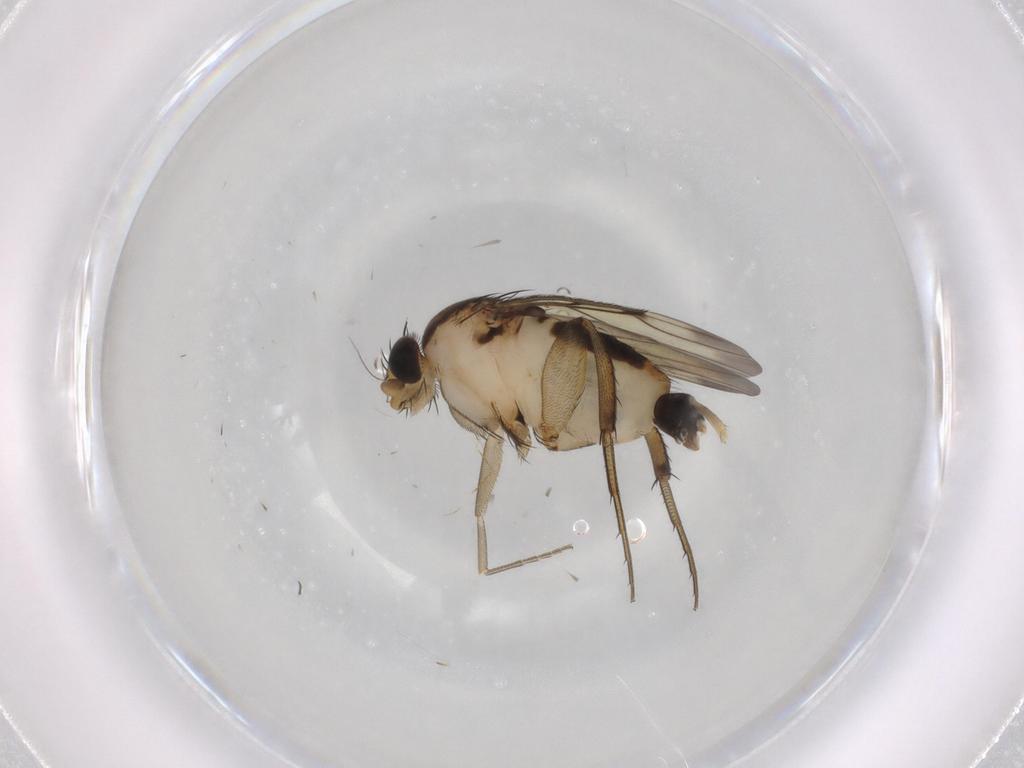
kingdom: Animalia
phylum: Arthropoda
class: Insecta
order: Diptera
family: Phoridae
